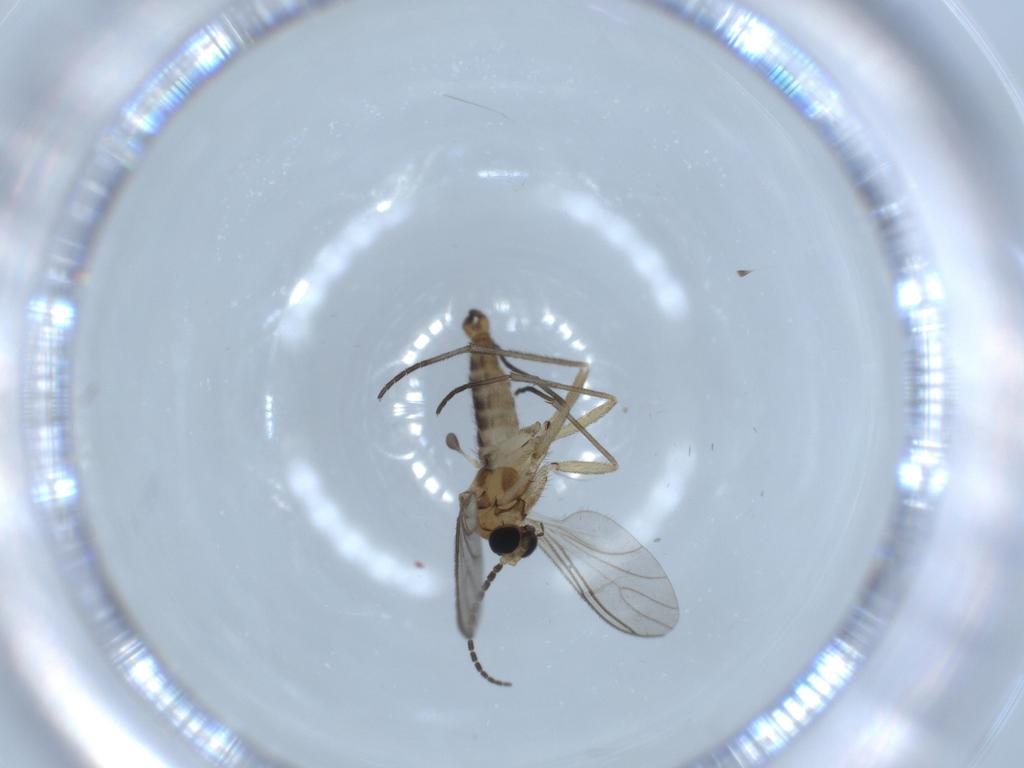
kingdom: Animalia
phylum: Arthropoda
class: Insecta
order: Diptera
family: Sciaridae
